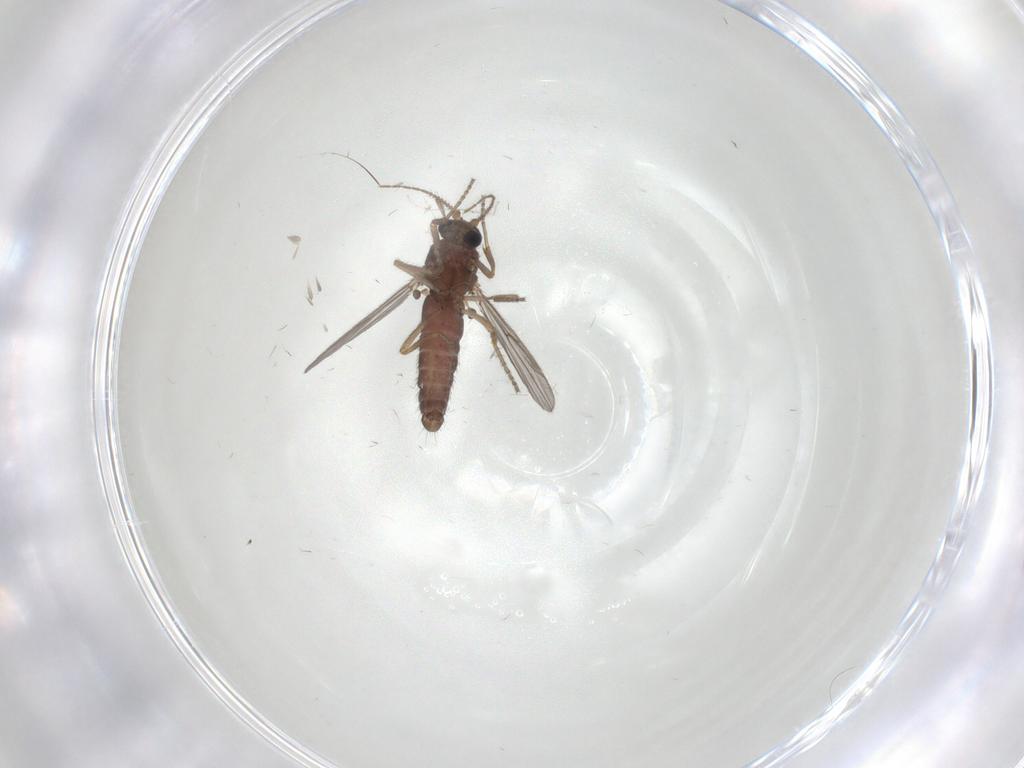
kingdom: Animalia
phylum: Arthropoda
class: Insecta
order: Diptera
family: Ceratopogonidae
